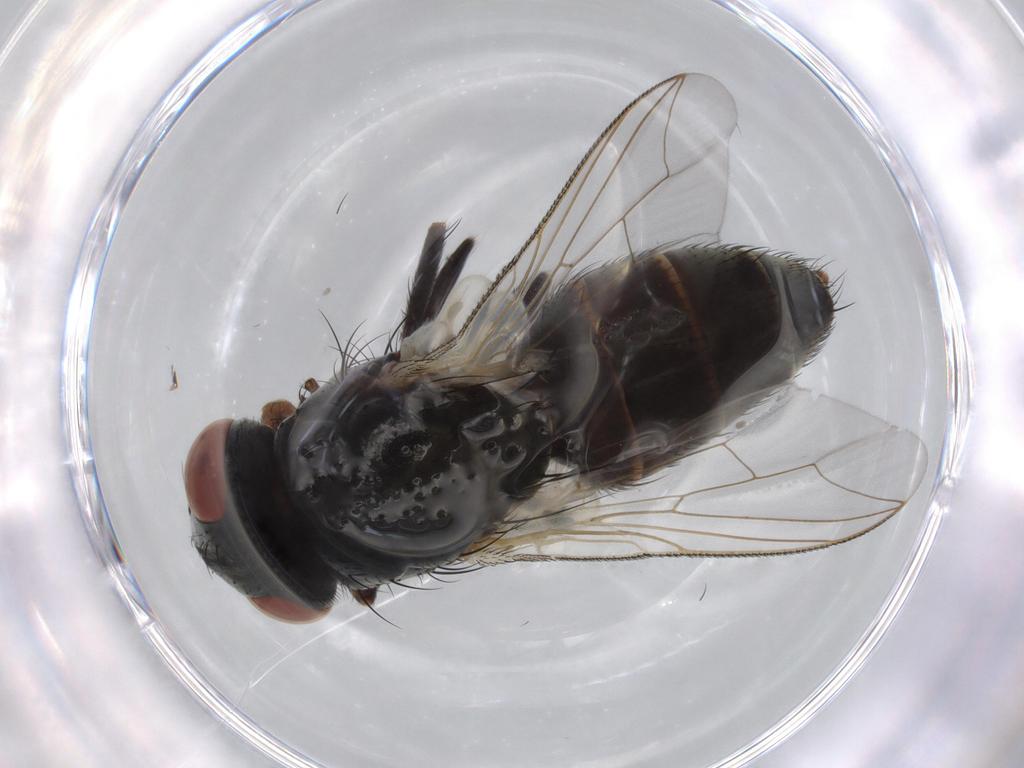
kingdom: Animalia
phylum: Arthropoda
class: Insecta
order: Diptera
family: Sarcophagidae
